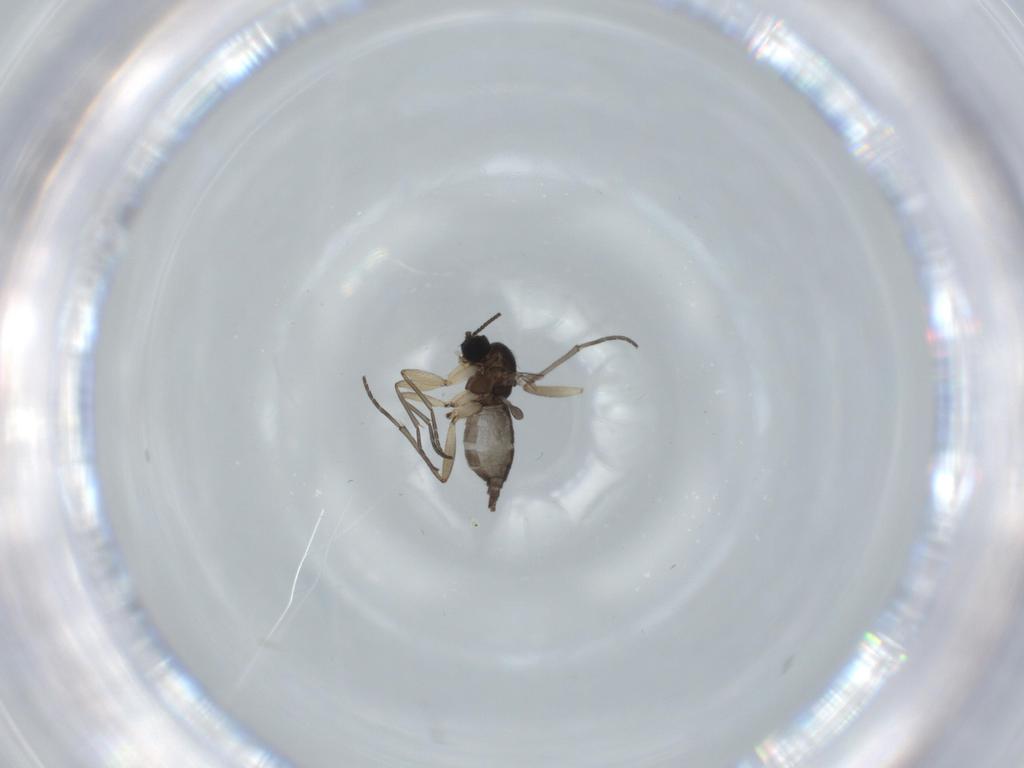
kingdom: Animalia
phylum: Arthropoda
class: Insecta
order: Diptera
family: Sciaridae
